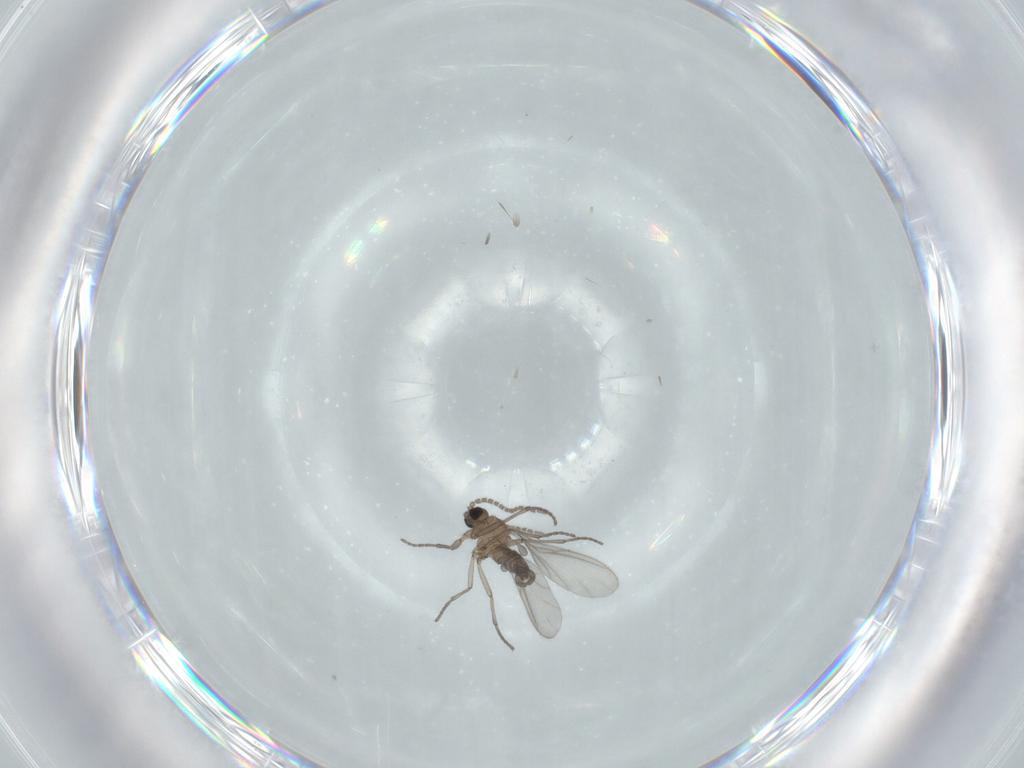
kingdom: Animalia
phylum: Arthropoda
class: Insecta
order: Diptera
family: Sciaridae
